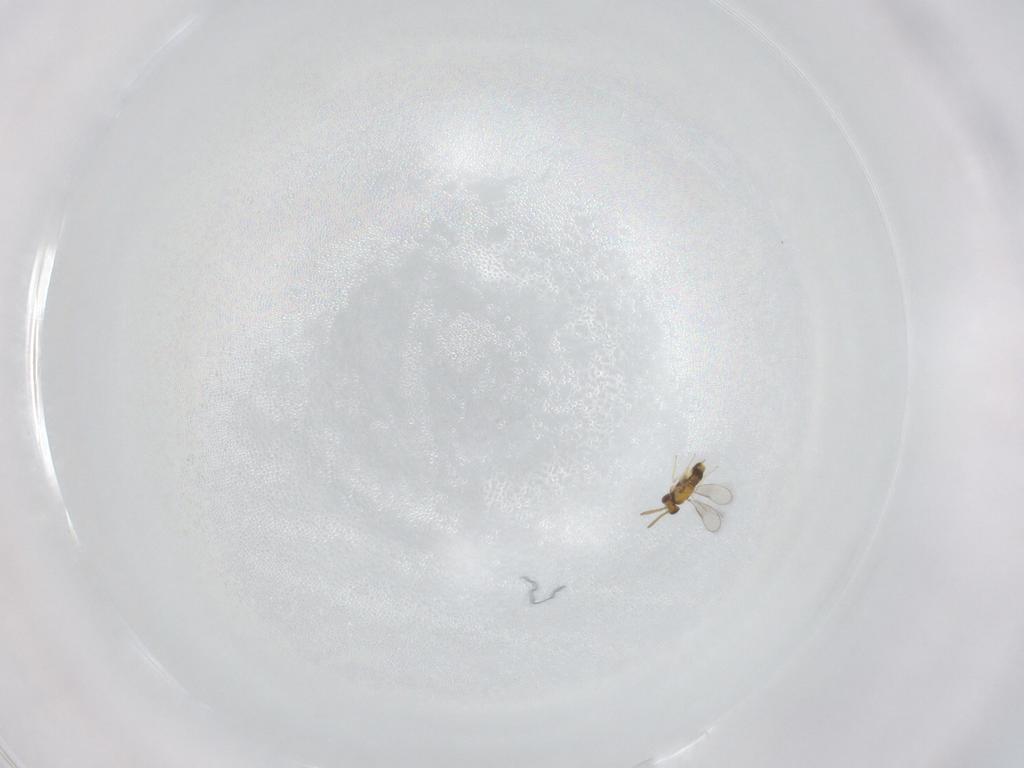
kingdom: Animalia
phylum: Arthropoda
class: Insecta
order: Hymenoptera
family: Aphelinidae
